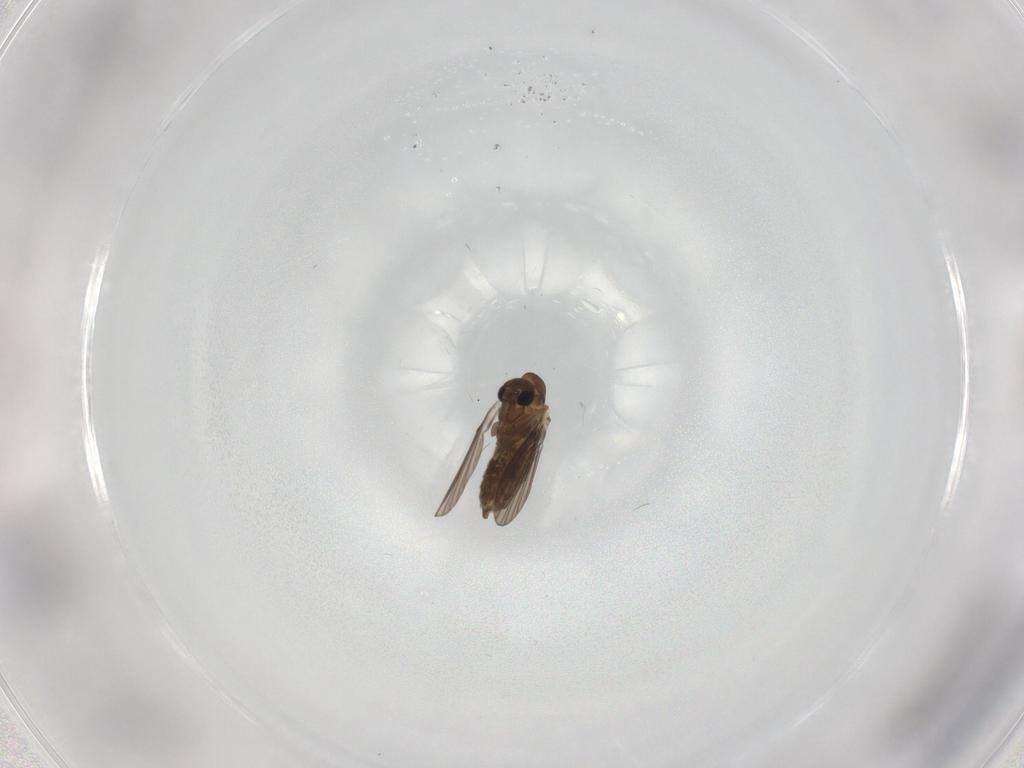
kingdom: Animalia
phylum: Arthropoda
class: Insecta
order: Diptera
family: Phoridae
